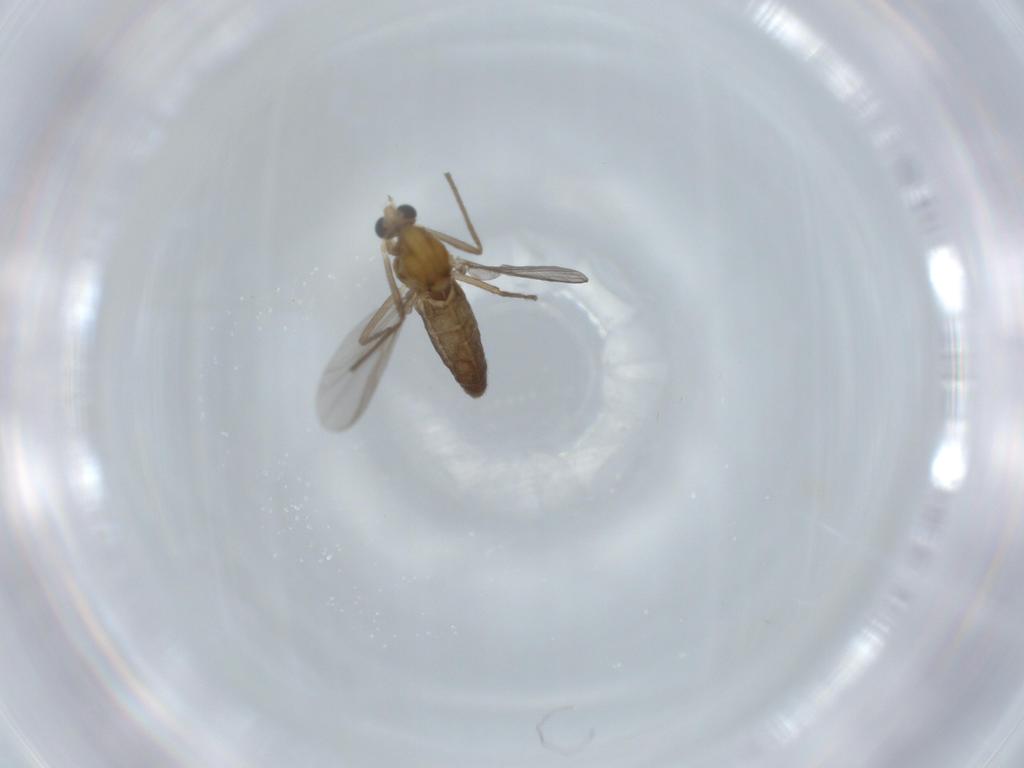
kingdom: Animalia
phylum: Arthropoda
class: Insecta
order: Diptera
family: Chironomidae
